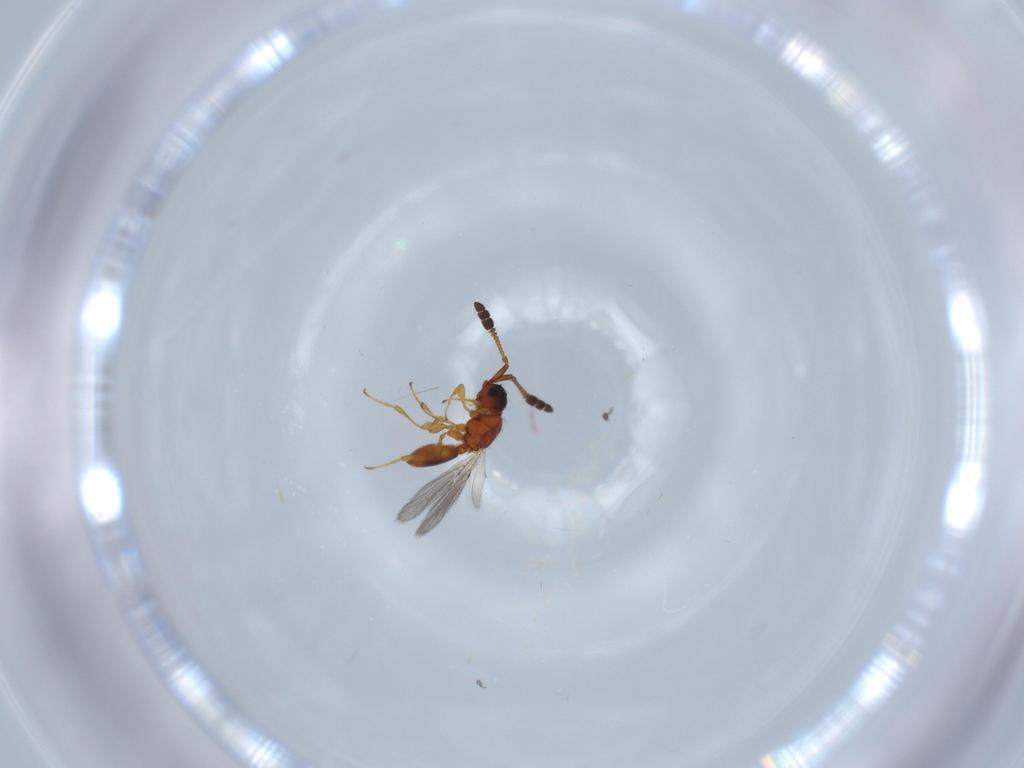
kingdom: Animalia
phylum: Arthropoda
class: Insecta
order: Hymenoptera
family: Diapriidae
